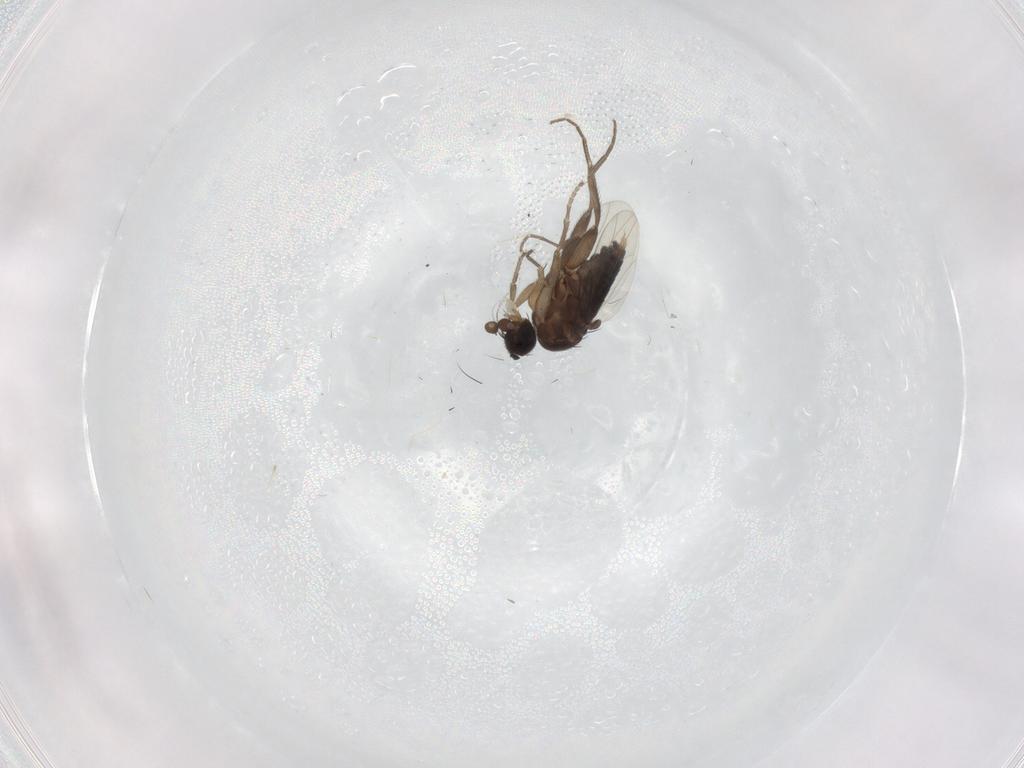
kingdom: Animalia
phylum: Arthropoda
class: Insecta
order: Diptera
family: Phoridae
